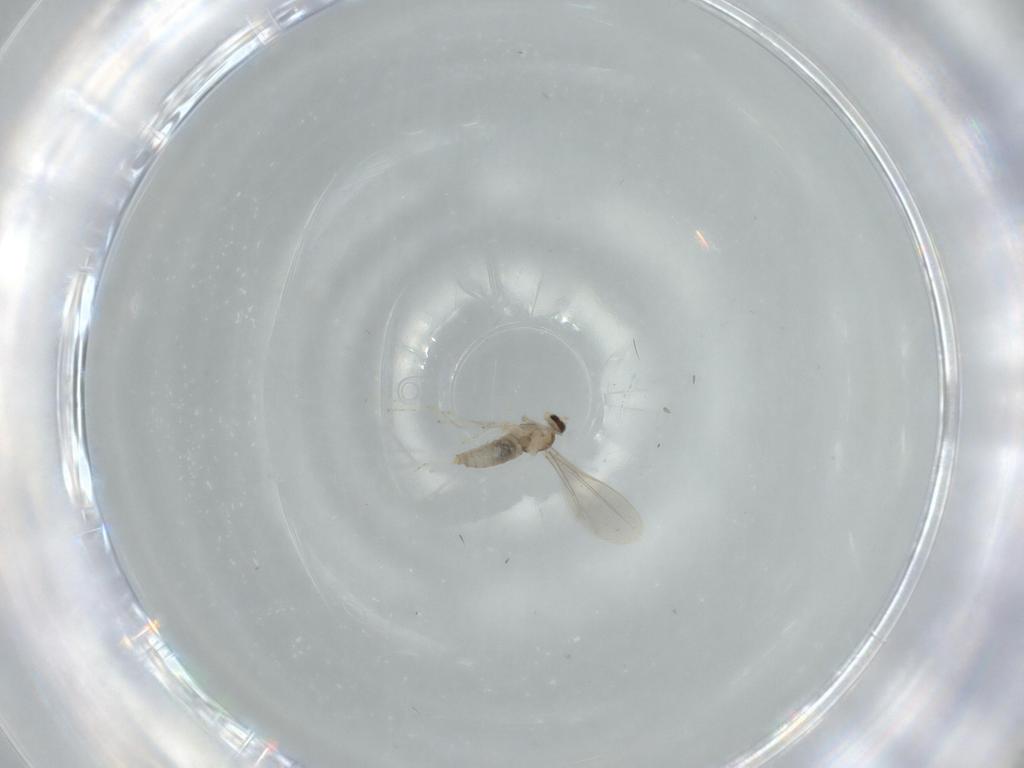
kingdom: Animalia
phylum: Arthropoda
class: Insecta
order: Diptera
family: Cecidomyiidae
